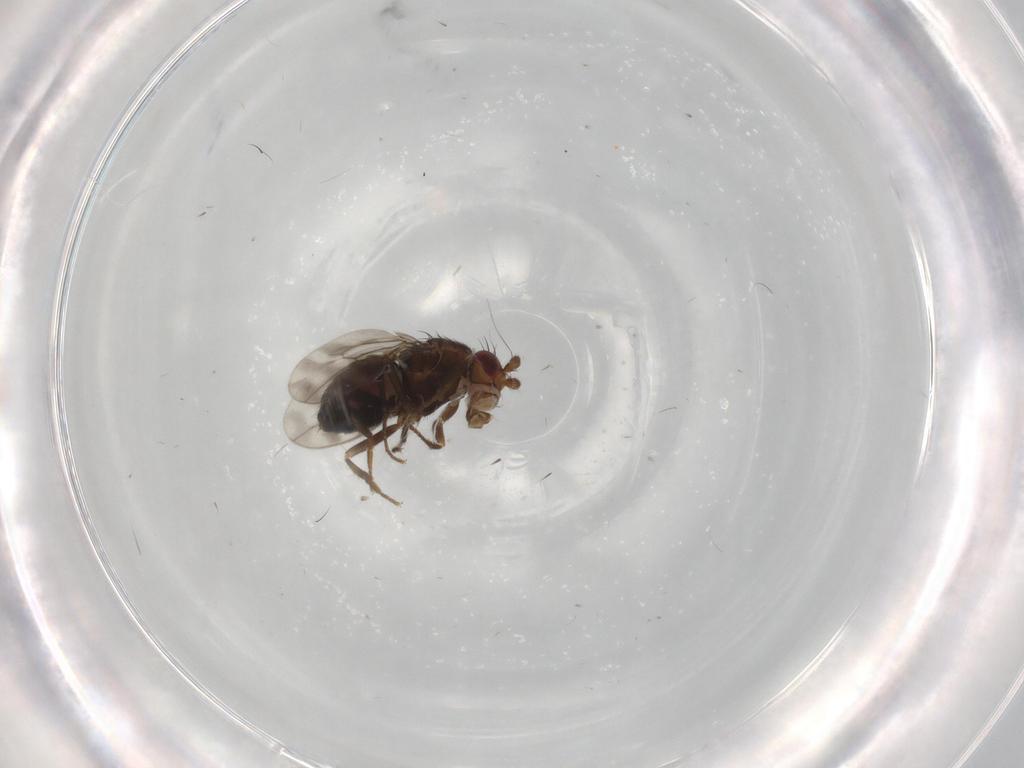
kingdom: Animalia
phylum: Arthropoda
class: Insecta
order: Diptera
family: Sphaeroceridae
